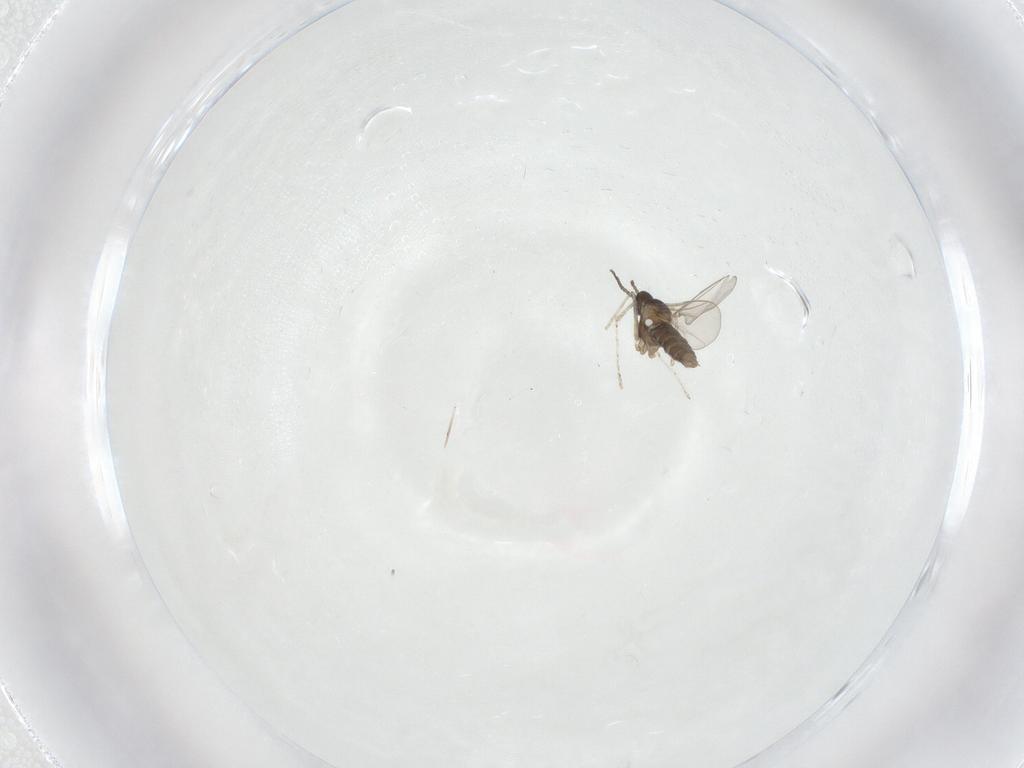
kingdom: Animalia
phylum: Arthropoda
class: Insecta
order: Diptera
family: Cecidomyiidae
